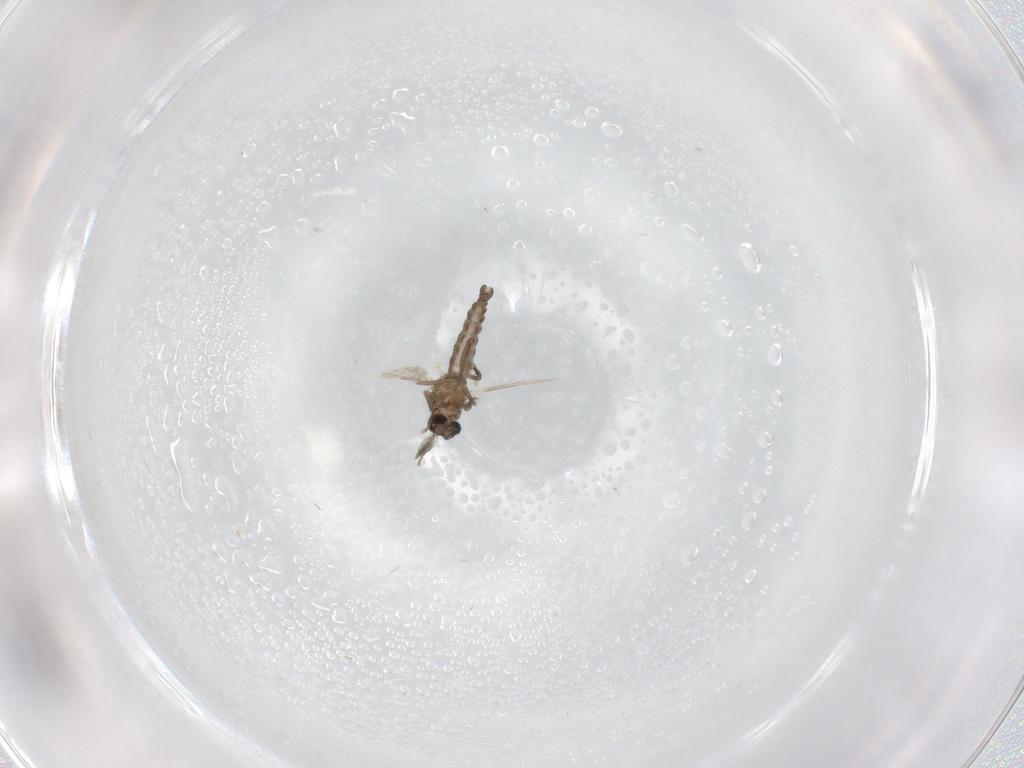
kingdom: Animalia
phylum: Arthropoda
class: Insecta
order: Diptera
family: Ceratopogonidae
